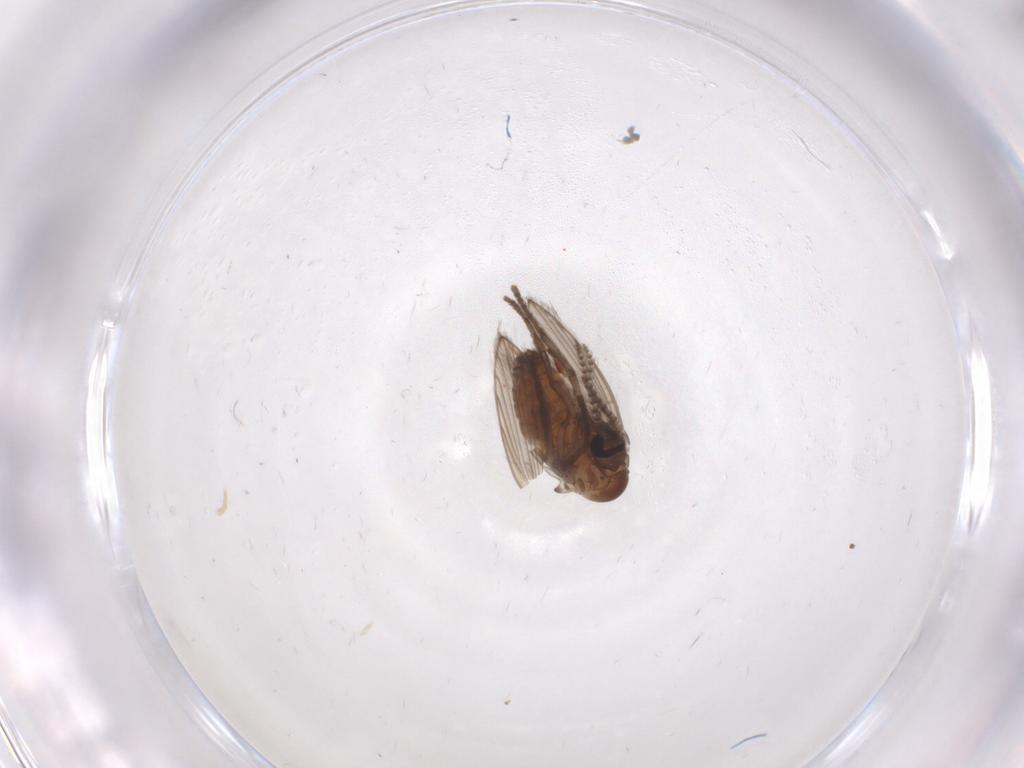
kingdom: Animalia
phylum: Arthropoda
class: Insecta
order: Diptera
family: Psychodidae
